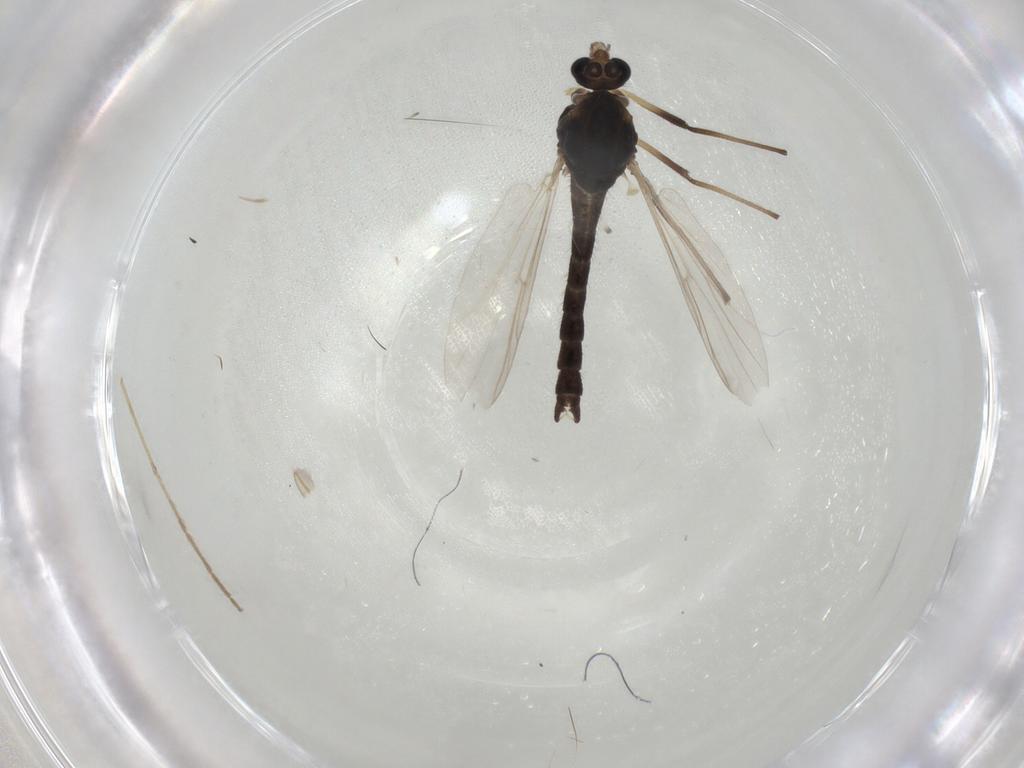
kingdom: Animalia
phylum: Arthropoda
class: Insecta
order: Diptera
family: Chironomidae
